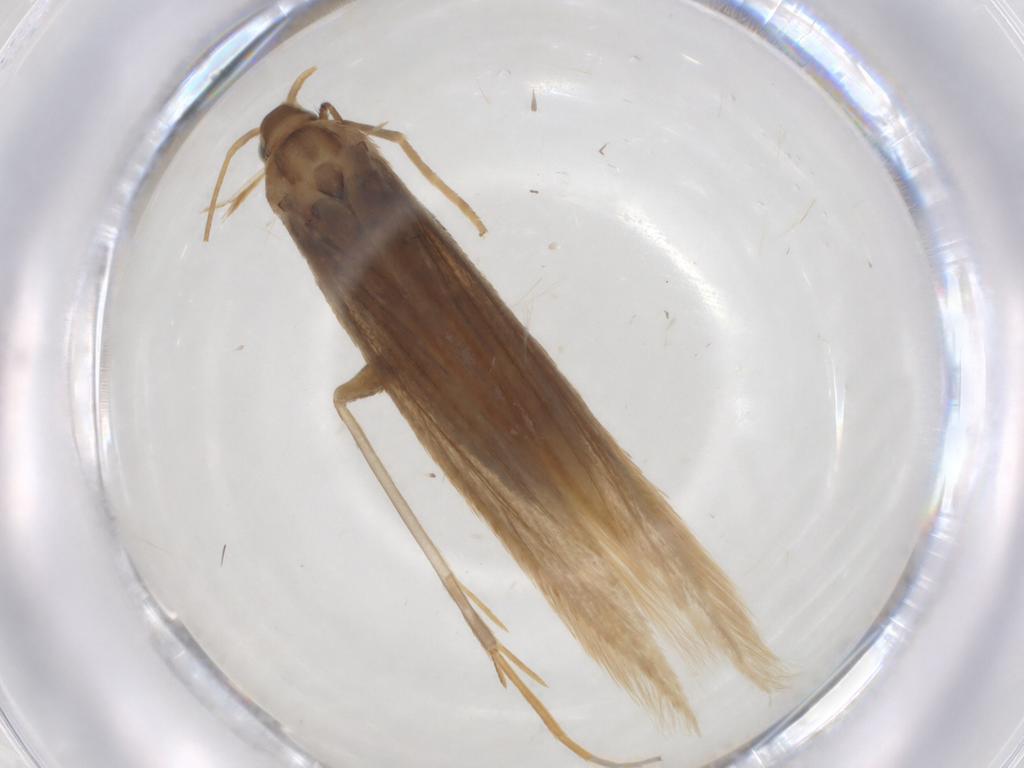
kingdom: Animalia
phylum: Arthropoda
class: Insecta
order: Lepidoptera
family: Coleophoridae
